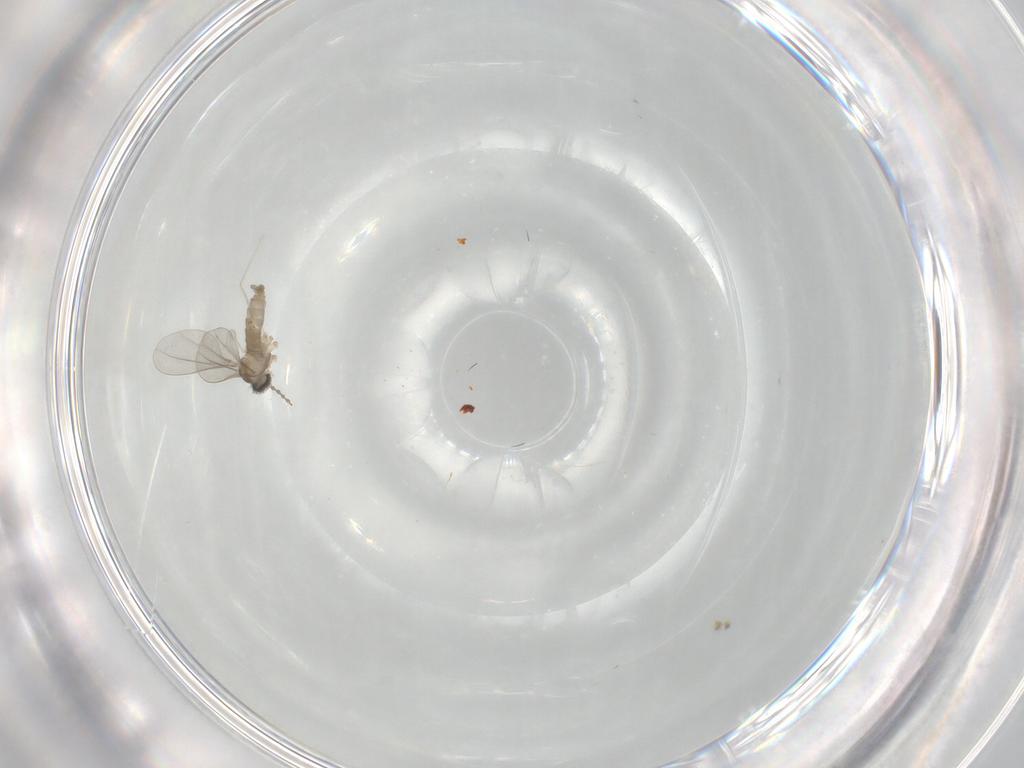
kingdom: Animalia
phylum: Arthropoda
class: Insecta
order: Diptera
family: Cecidomyiidae
